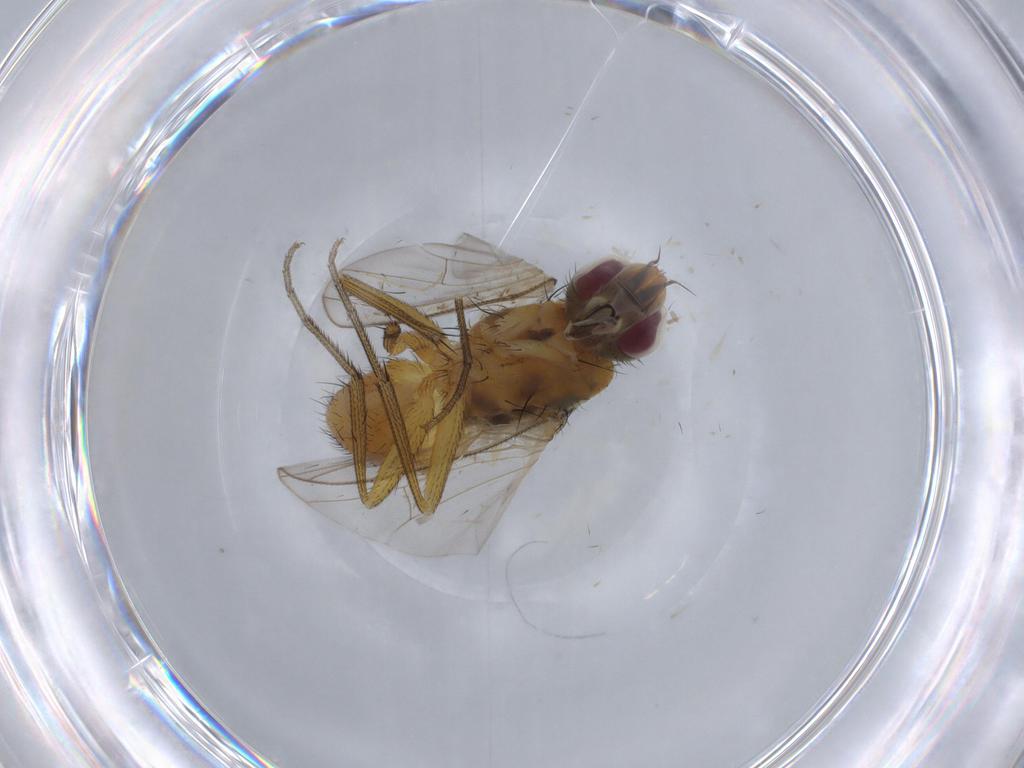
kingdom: Animalia
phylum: Arthropoda
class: Insecta
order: Diptera
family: Muscidae
